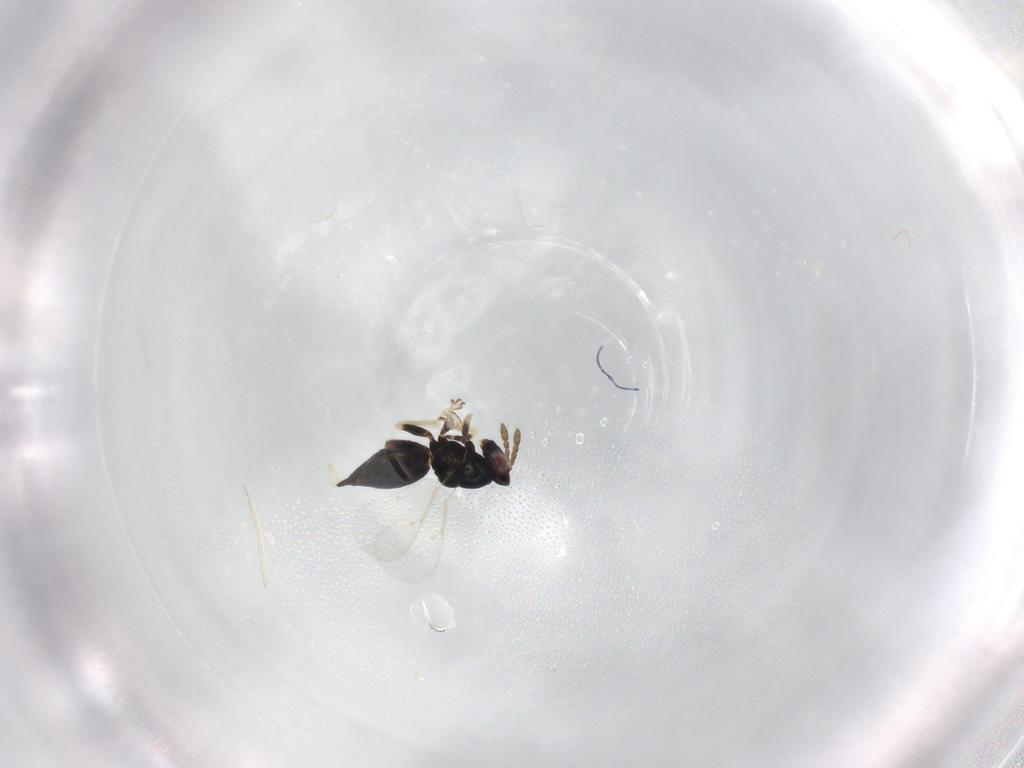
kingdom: Animalia
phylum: Arthropoda
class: Insecta
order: Hymenoptera
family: Eulophidae
